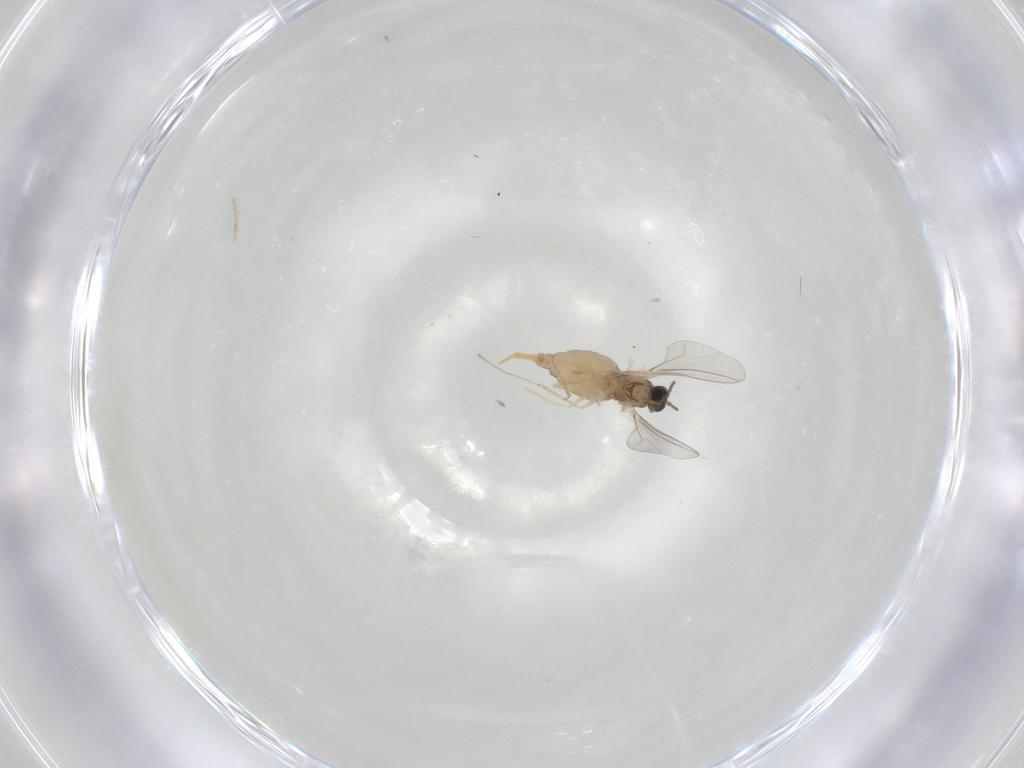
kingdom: Animalia
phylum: Arthropoda
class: Insecta
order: Diptera
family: Cecidomyiidae
